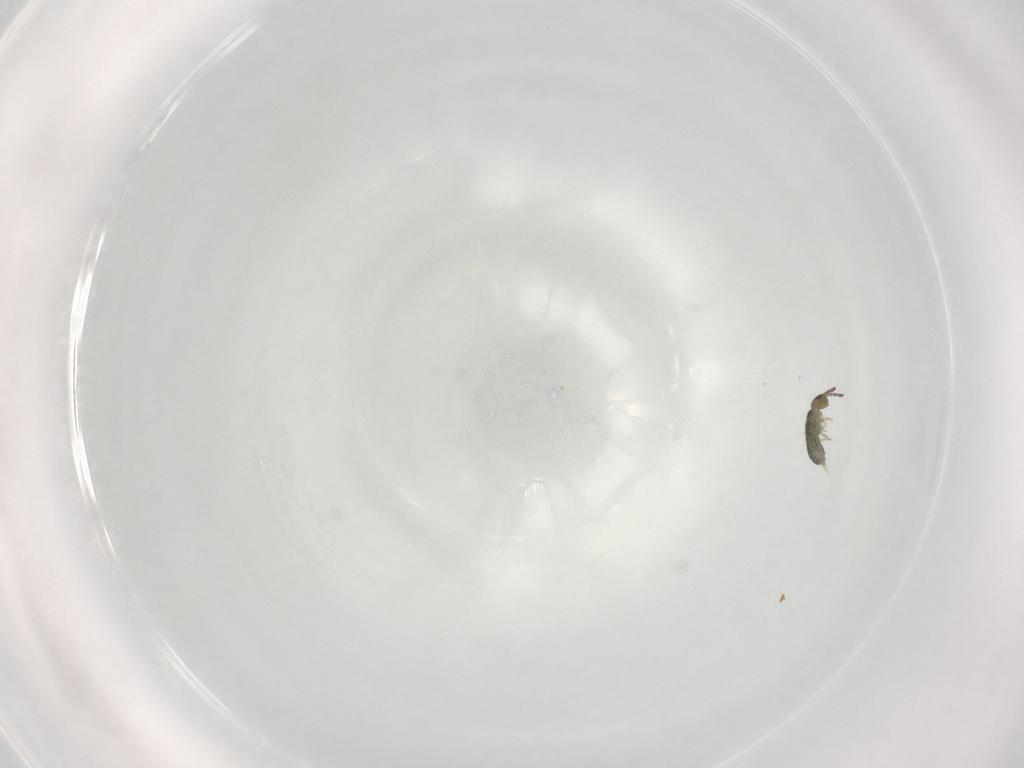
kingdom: Animalia
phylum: Arthropoda
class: Collembola
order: Entomobryomorpha
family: Isotomidae
